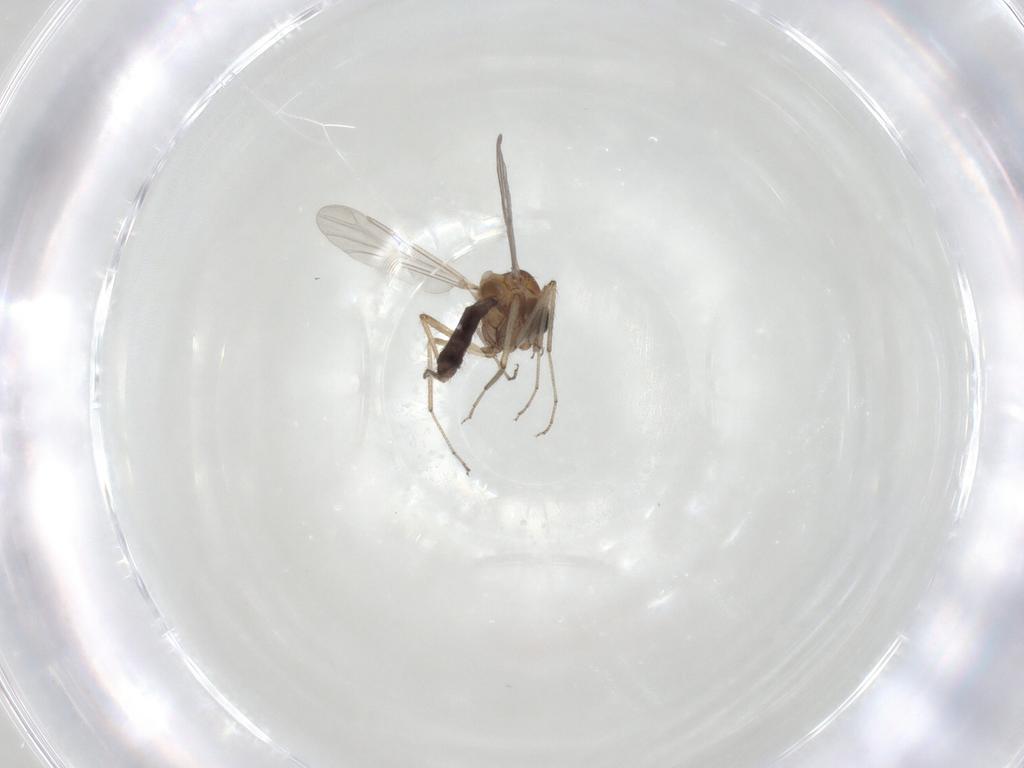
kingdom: Animalia
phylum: Arthropoda
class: Insecta
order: Diptera
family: Ceratopogonidae
